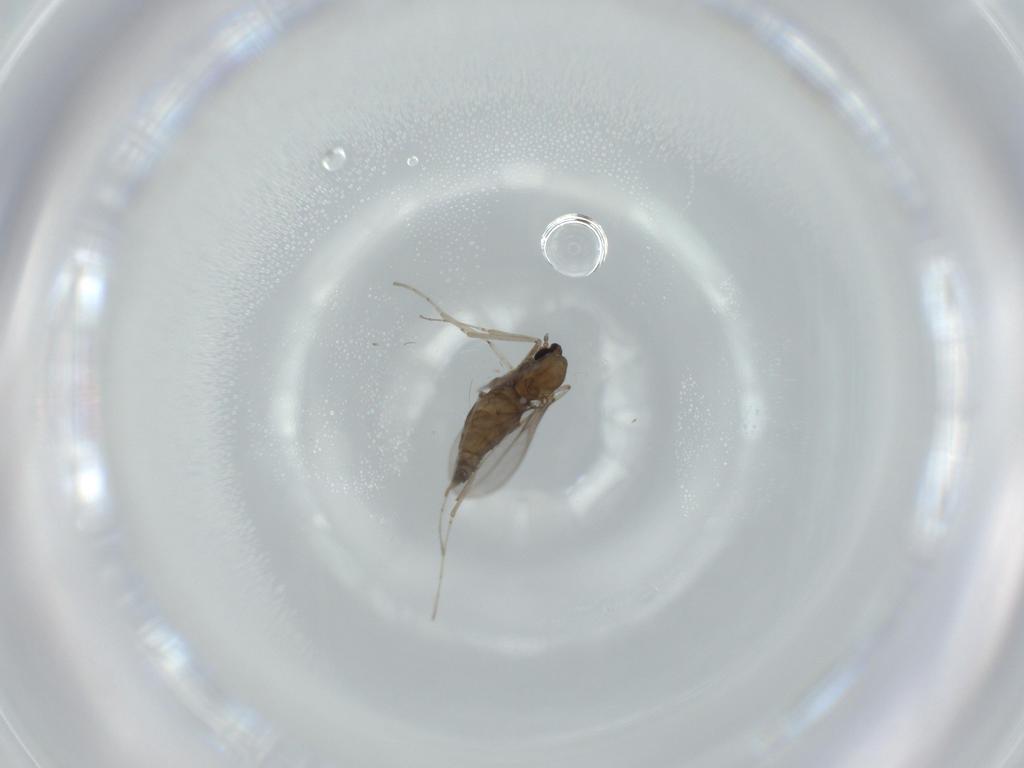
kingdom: Animalia
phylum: Arthropoda
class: Insecta
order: Diptera
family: Cecidomyiidae
